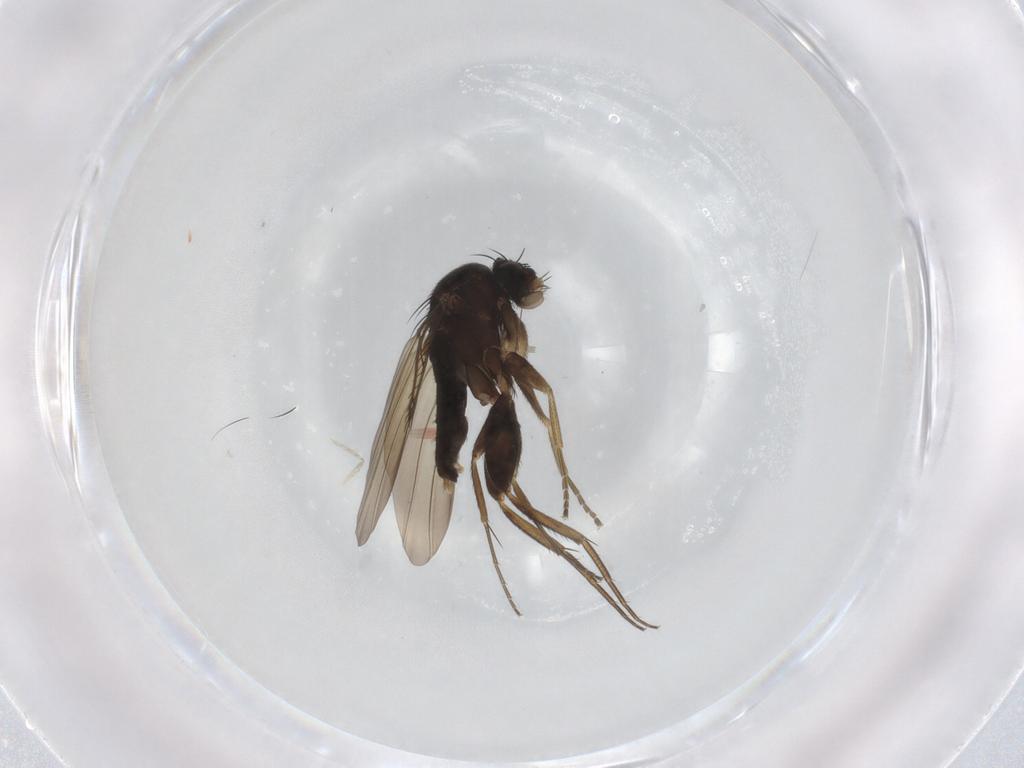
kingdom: Animalia
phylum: Arthropoda
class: Insecta
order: Diptera
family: Phoridae
